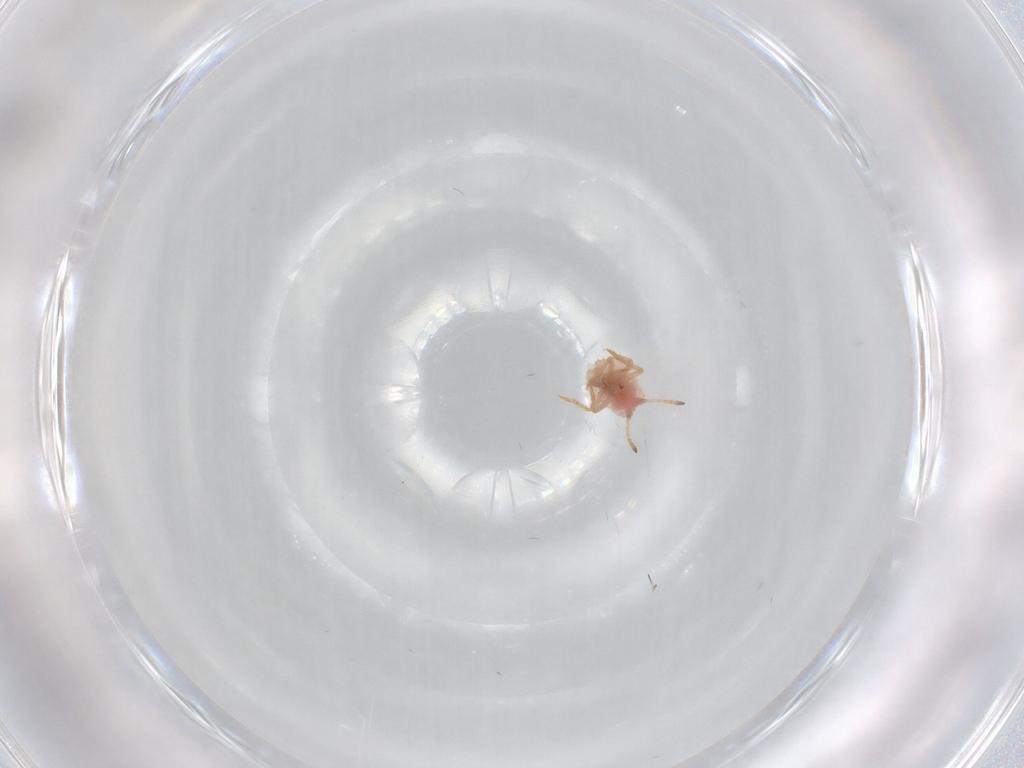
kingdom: Animalia
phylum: Arthropoda
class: Insecta
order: Hemiptera
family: Coccoidea_incertae_sedis
